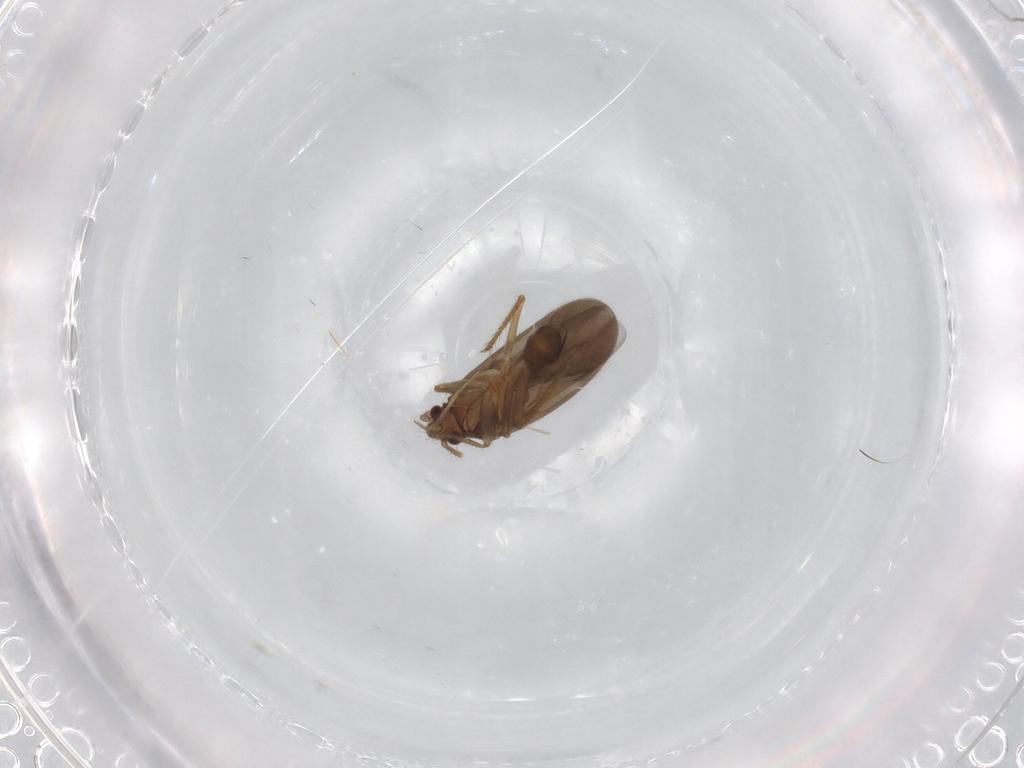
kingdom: Animalia
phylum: Arthropoda
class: Insecta
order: Hemiptera
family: Ceratocombidae
